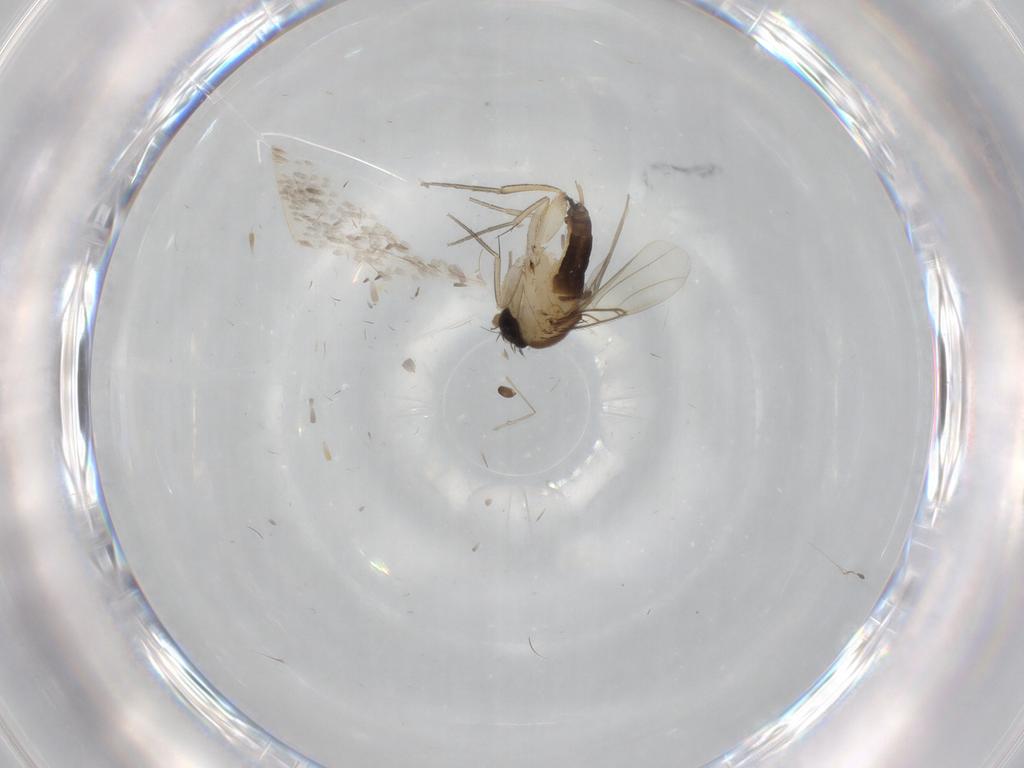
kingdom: Animalia
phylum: Arthropoda
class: Insecta
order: Diptera
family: Phoridae
